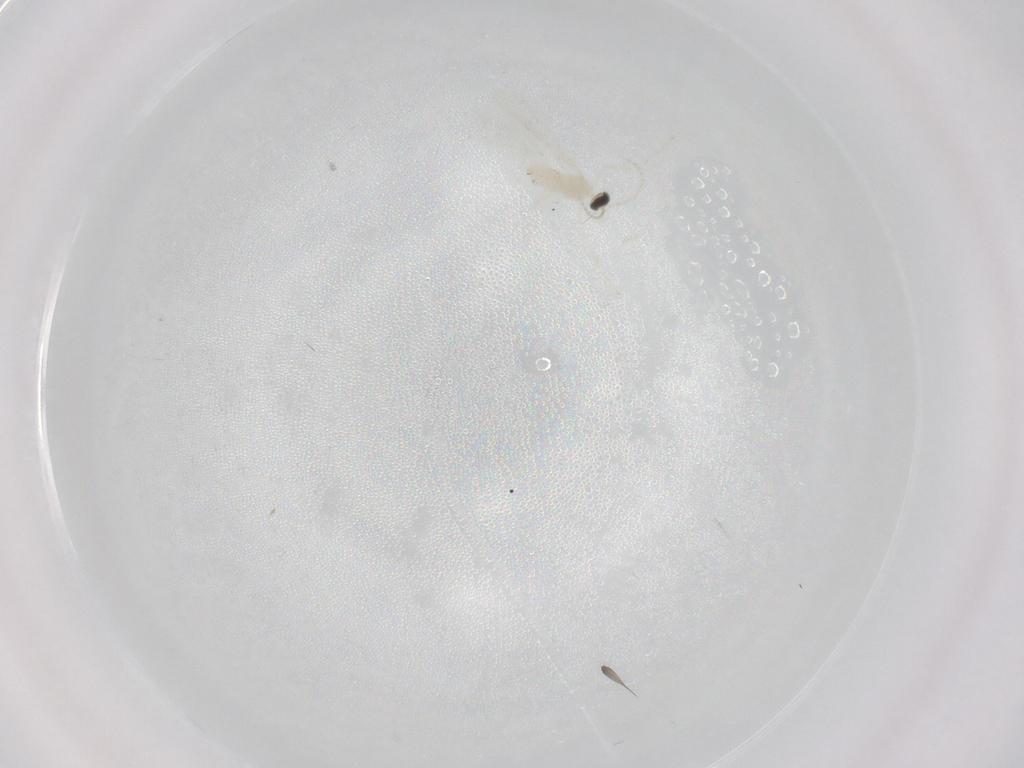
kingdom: Animalia
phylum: Arthropoda
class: Insecta
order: Diptera
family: Cecidomyiidae
